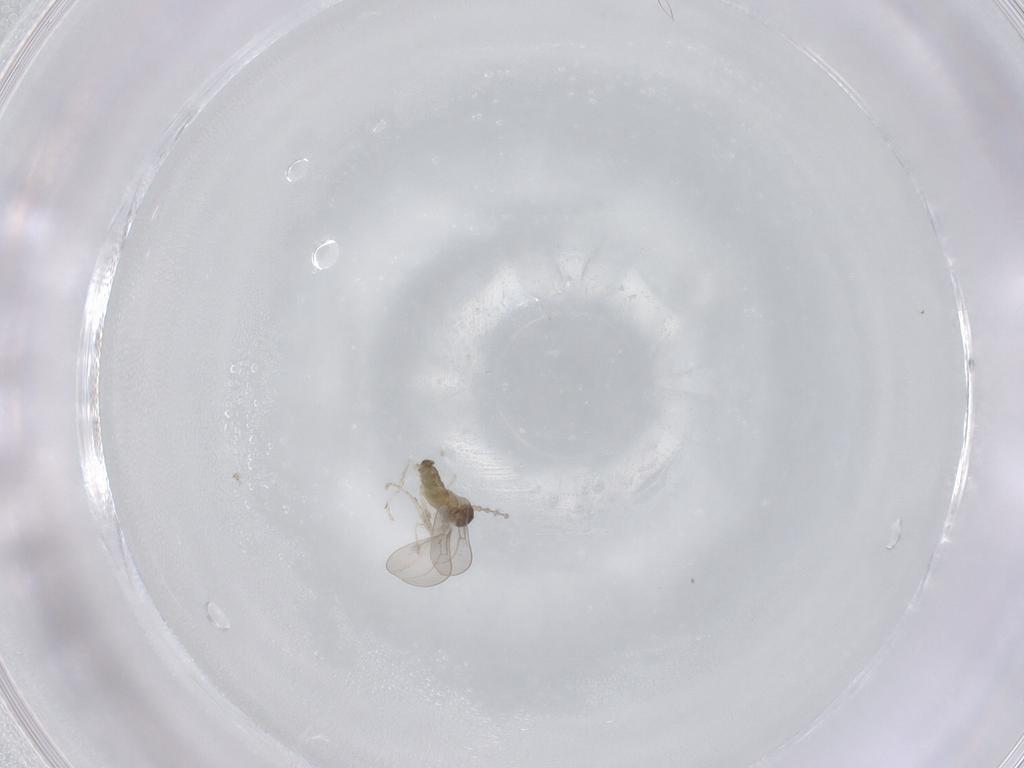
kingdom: Animalia
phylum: Arthropoda
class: Insecta
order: Diptera
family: Cecidomyiidae
